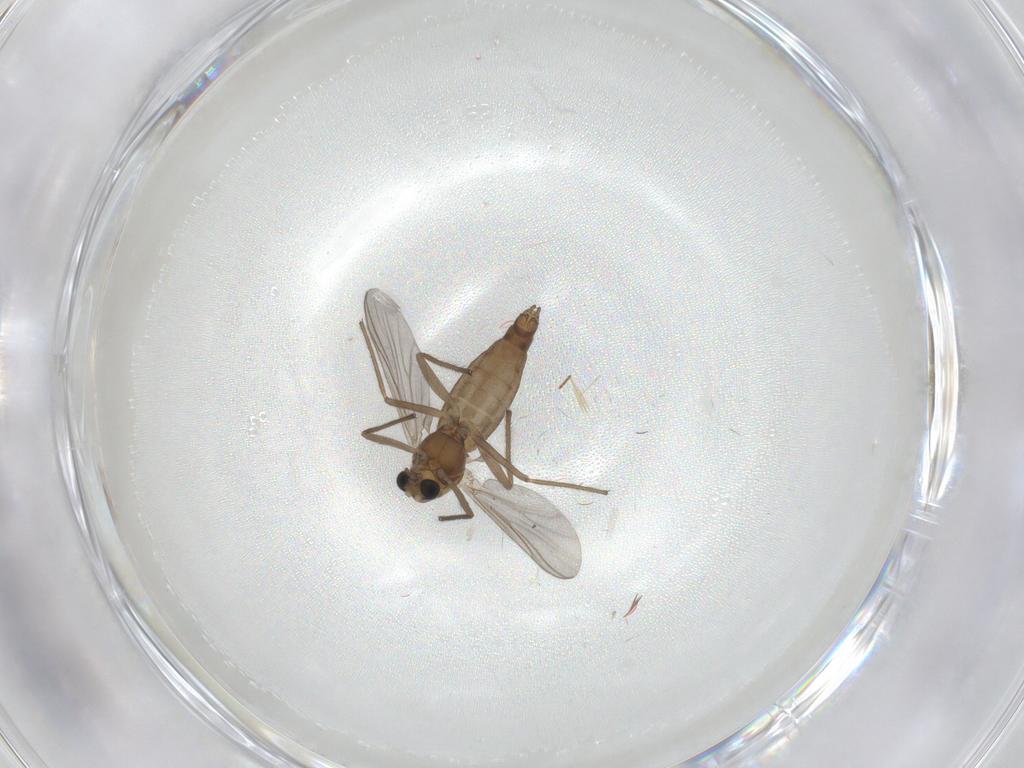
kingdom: Animalia
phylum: Arthropoda
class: Insecta
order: Diptera
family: Chironomidae
